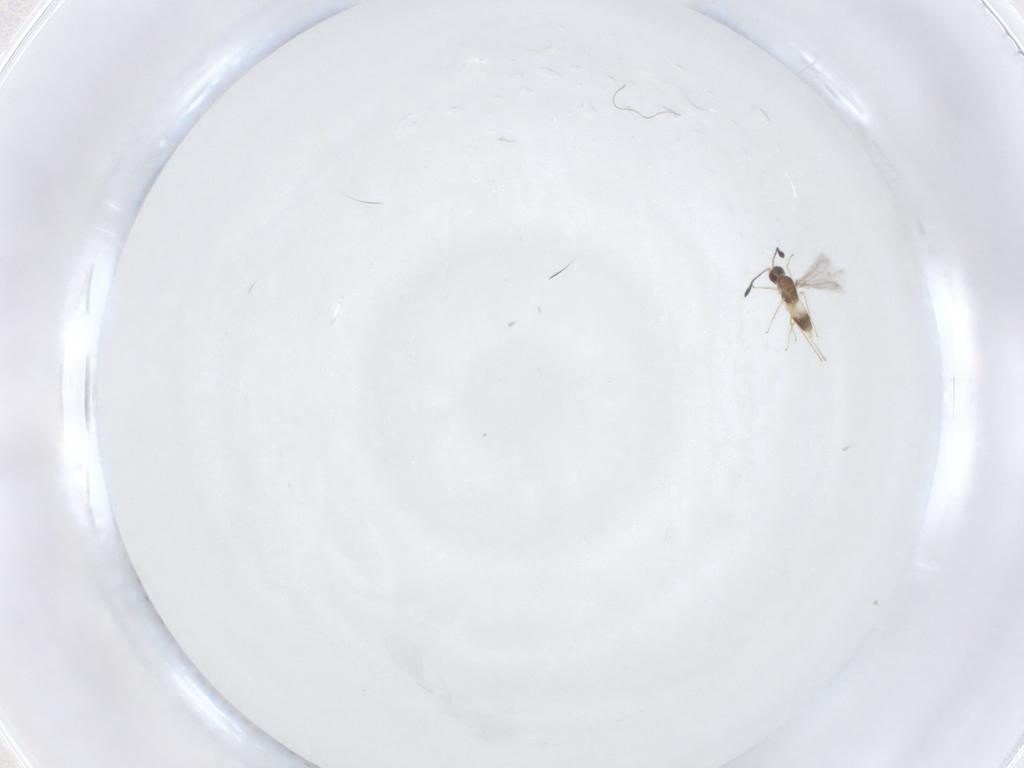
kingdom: Animalia
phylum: Arthropoda
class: Insecta
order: Hymenoptera
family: Mymaridae
